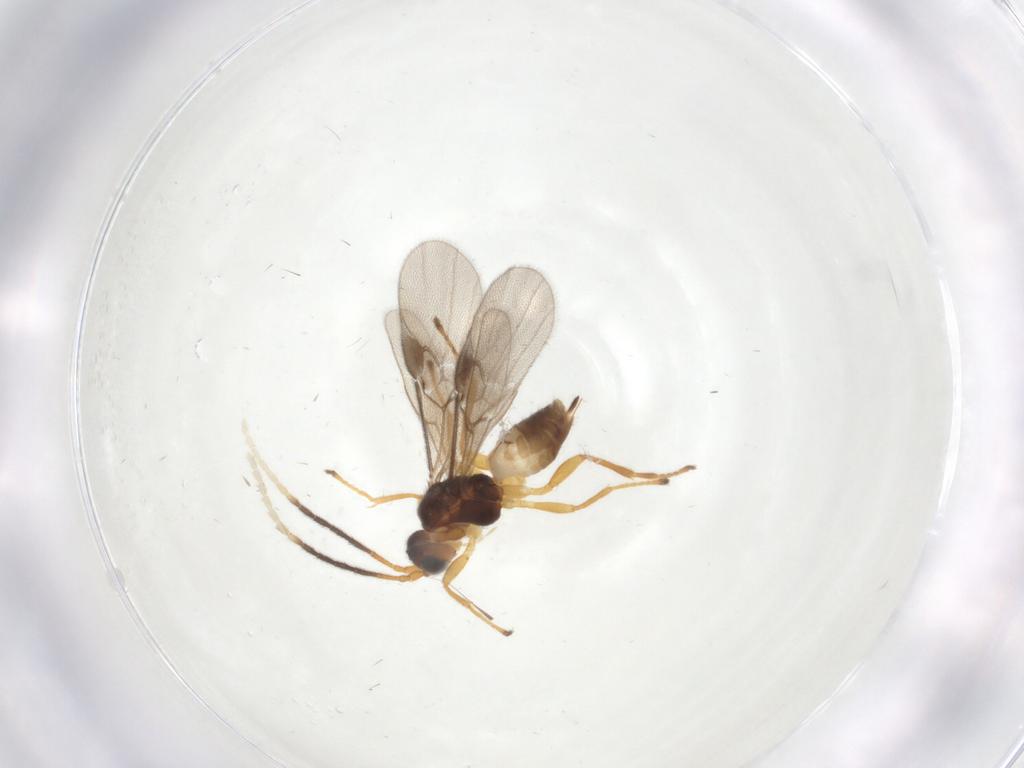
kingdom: Animalia
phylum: Arthropoda
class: Insecta
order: Hymenoptera
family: Braconidae
